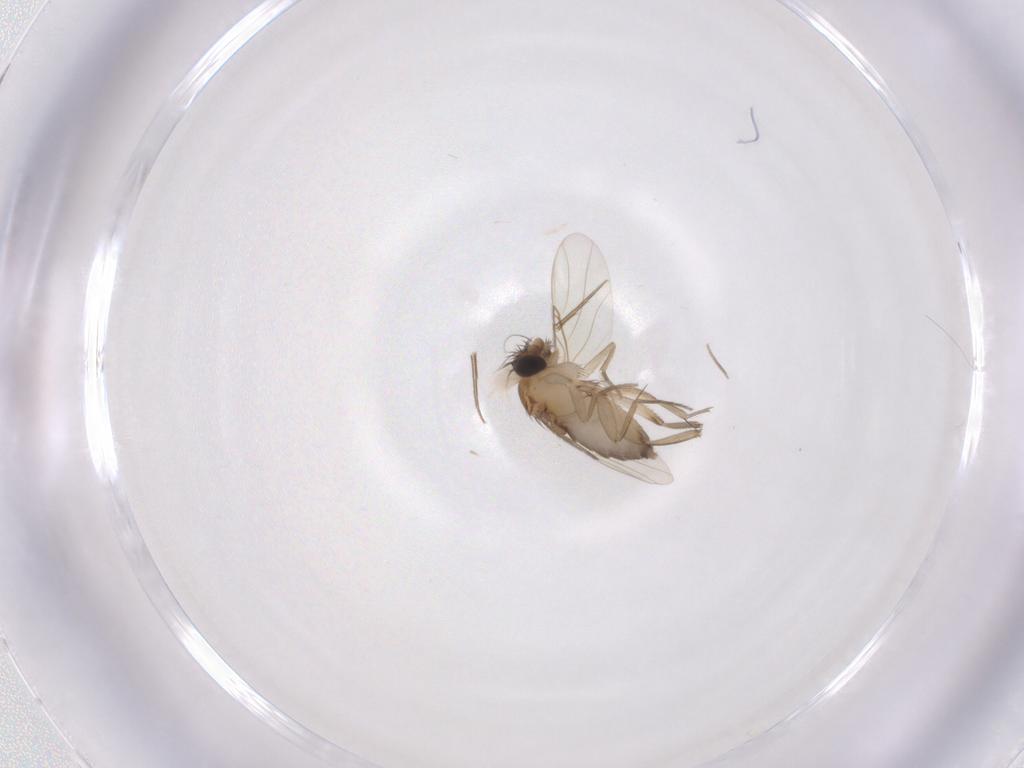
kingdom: Animalia
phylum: Arthropoda
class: Insecta
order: Diptera
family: Phoridae
